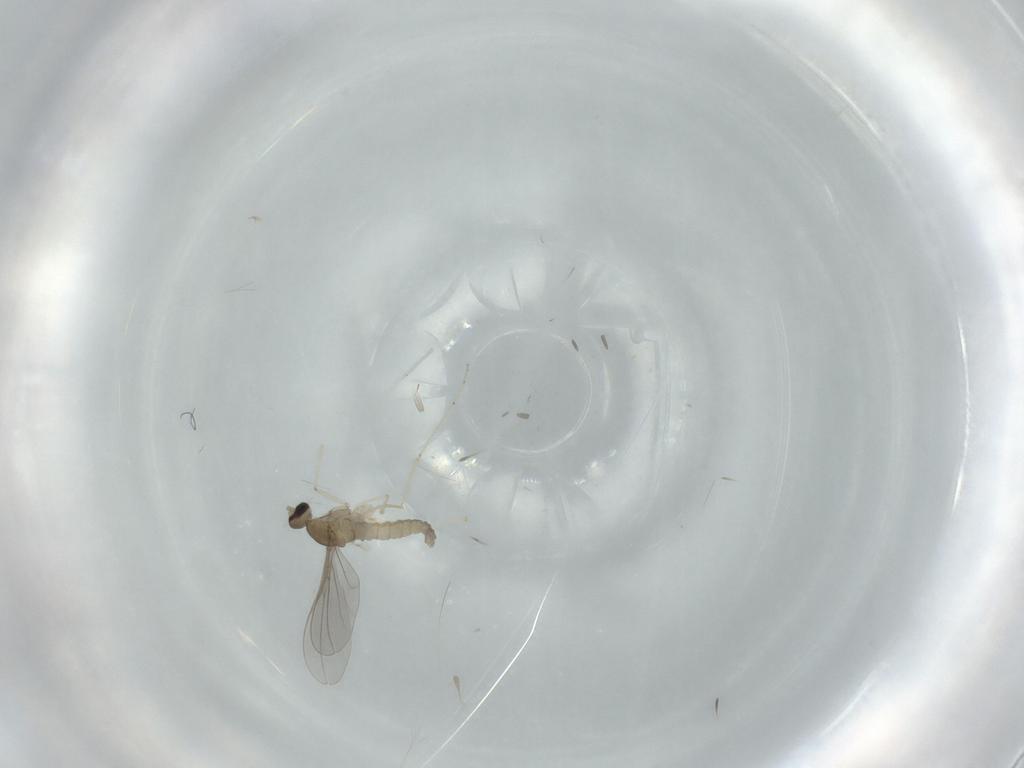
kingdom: Animalia
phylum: Arthropoda
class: Insecta
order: Diptera
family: Cecidomyiidae
